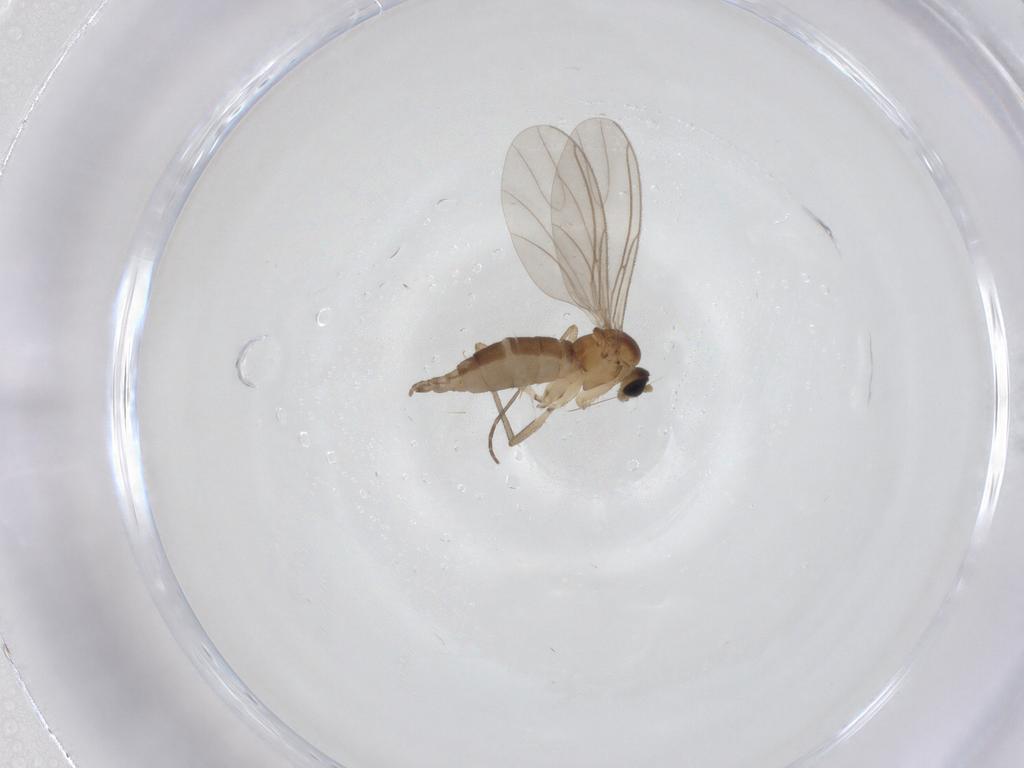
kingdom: Animalia
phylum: Arthropoda
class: Insecta
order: Diptera
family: Sciaridae
